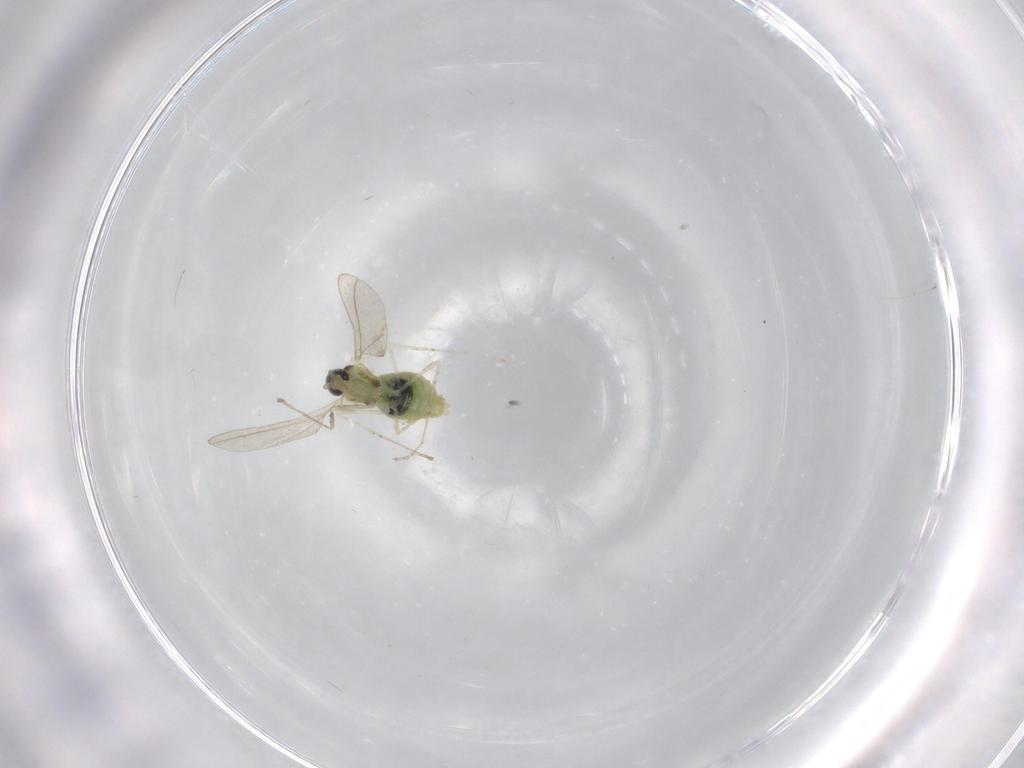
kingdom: Animalia
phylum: Arthropoda
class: Insecta
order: Diptera
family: Cecidomyiidae
